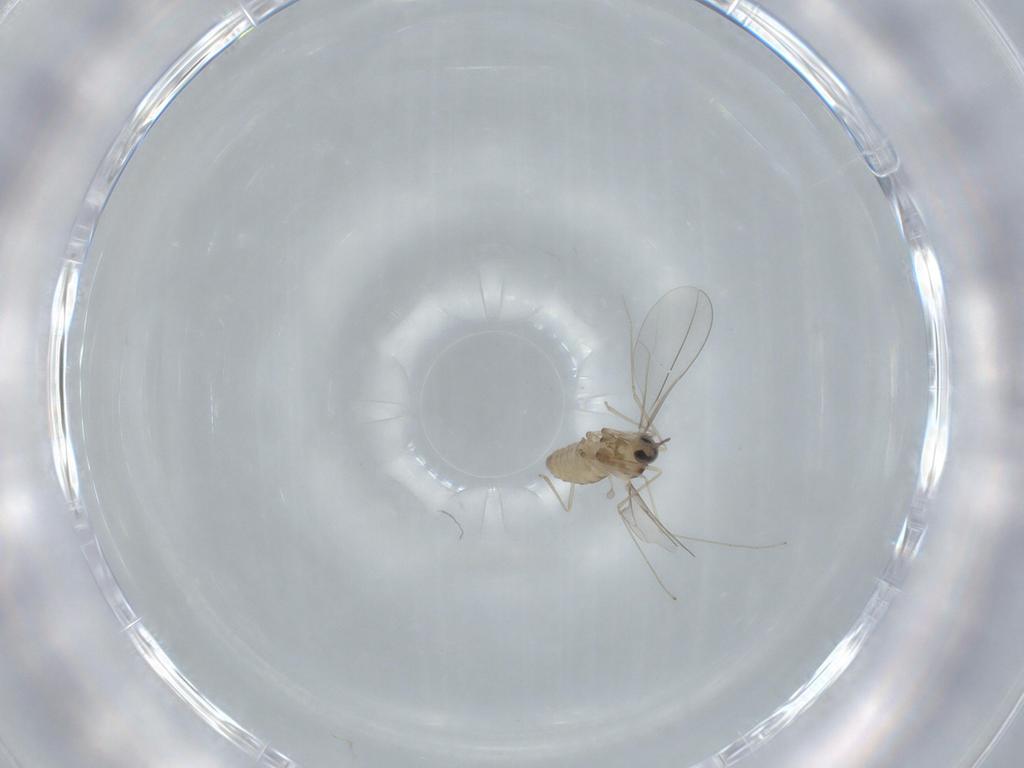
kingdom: Animalia
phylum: Arthropoda
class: Insecta
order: Diptera
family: Cecidomyiidae
